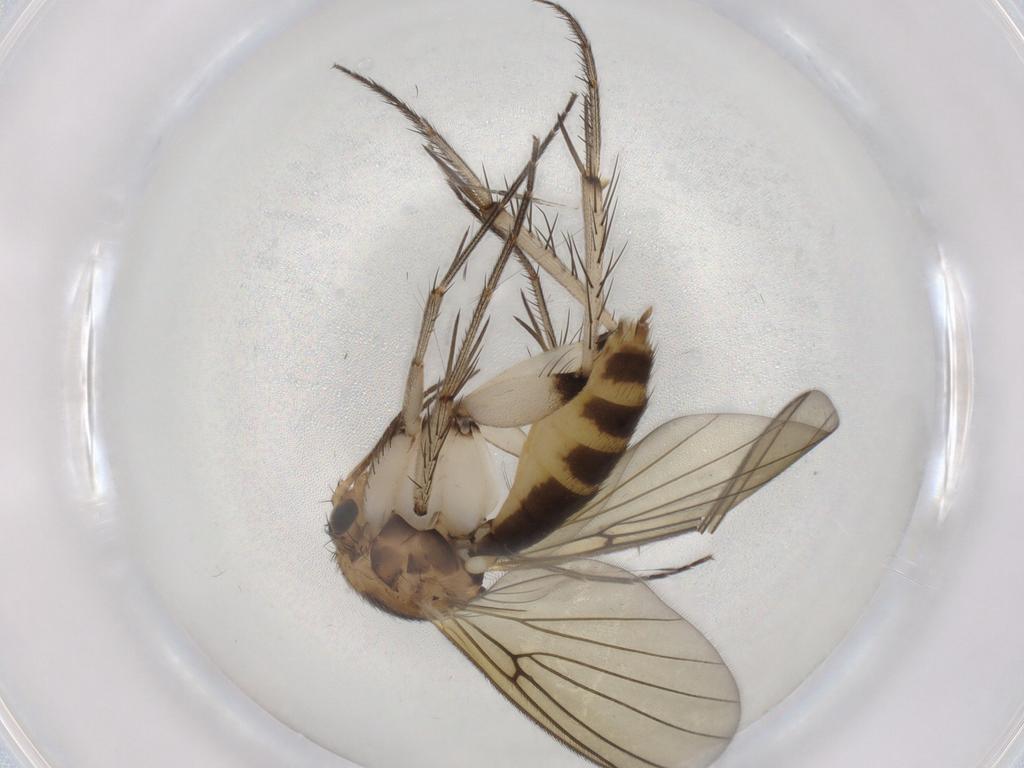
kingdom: Animalia
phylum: Arthropoda
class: Insecta
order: Diptera
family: Mycetophilidae
